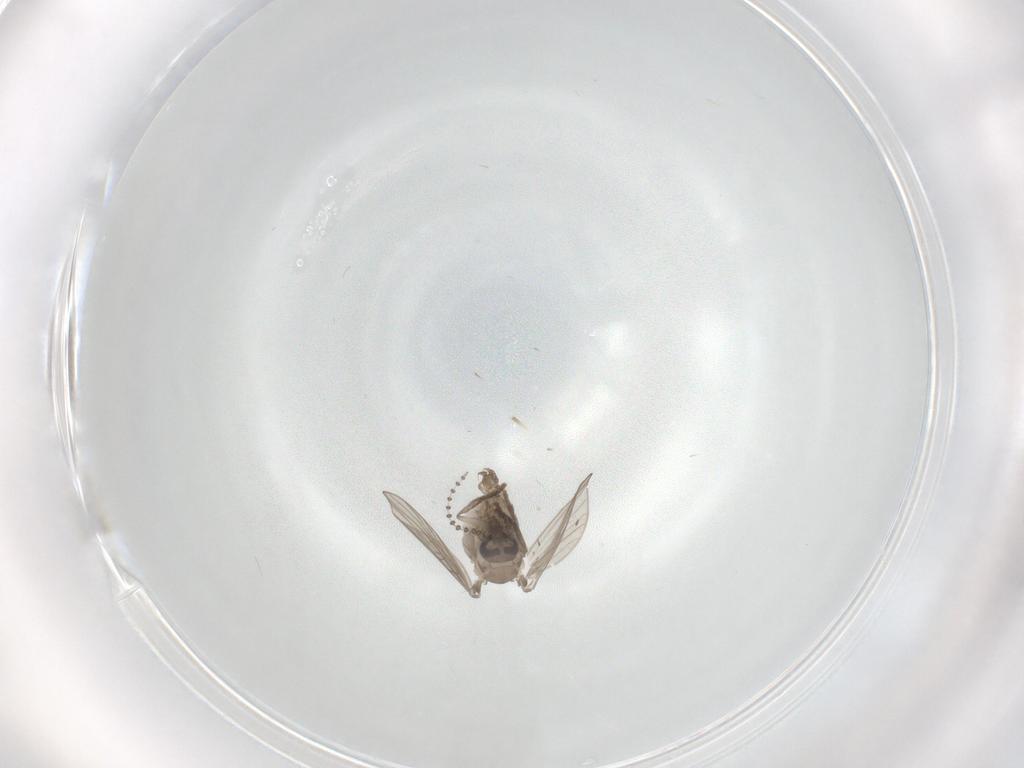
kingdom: Animalia
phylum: Arthropoda
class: Insecta
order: Diptera
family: Psychodidae
